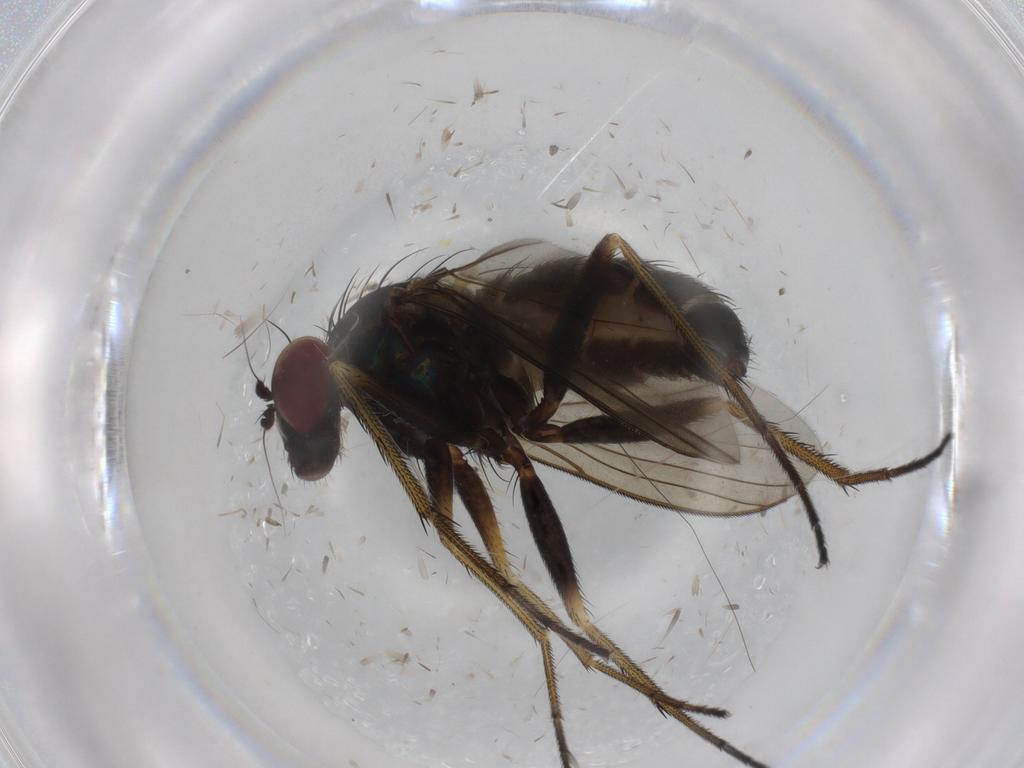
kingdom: Animalia
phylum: Arthropoda
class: Insecta
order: Diptera
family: Dolichopodidae
